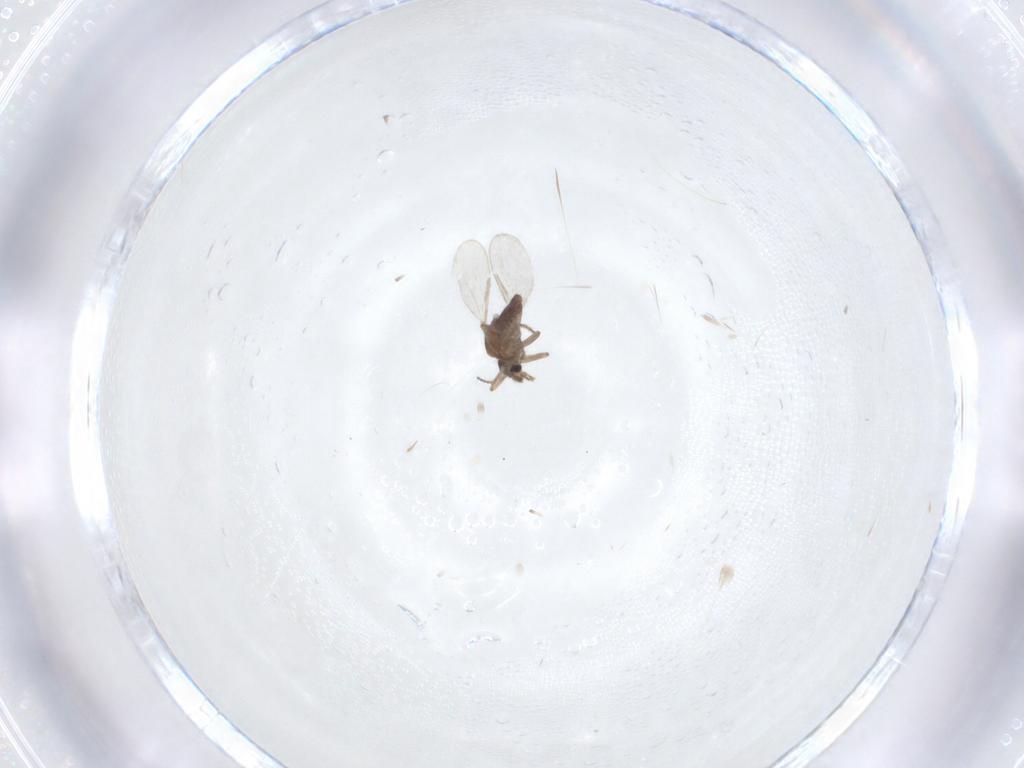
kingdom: Animalia
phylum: Arthropoda
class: Insecta
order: Diptera
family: Ceratopogonidae
